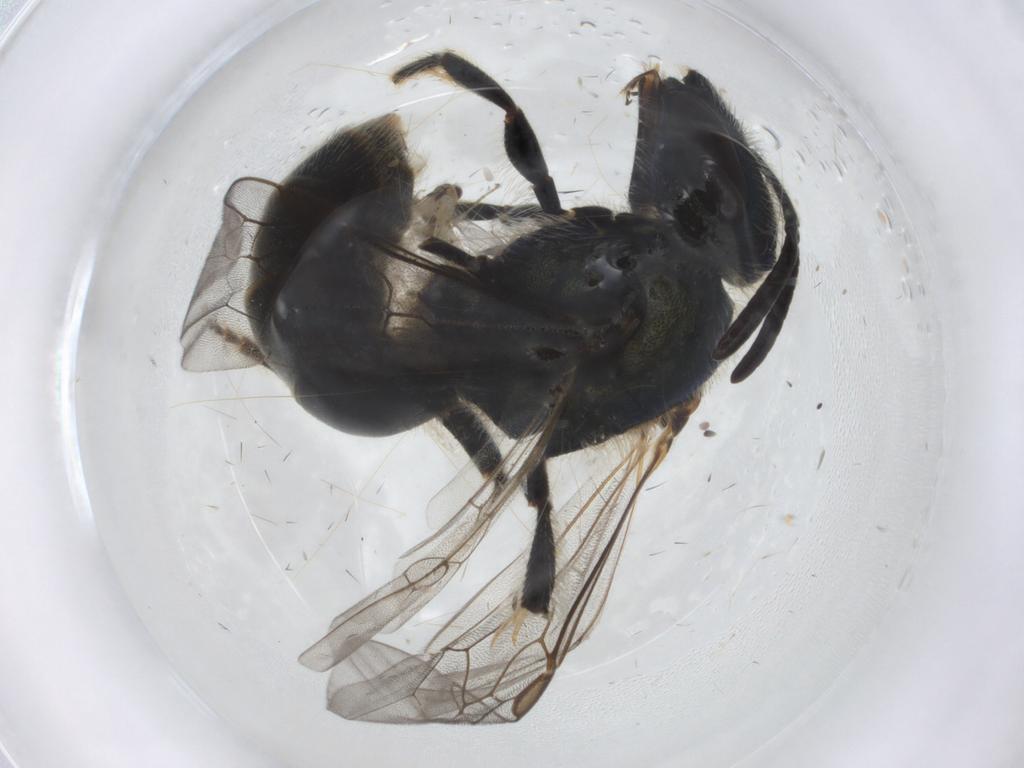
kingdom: Animalia
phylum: Arthropoda
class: Insecta
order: Hymenoptera
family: Halictidae
